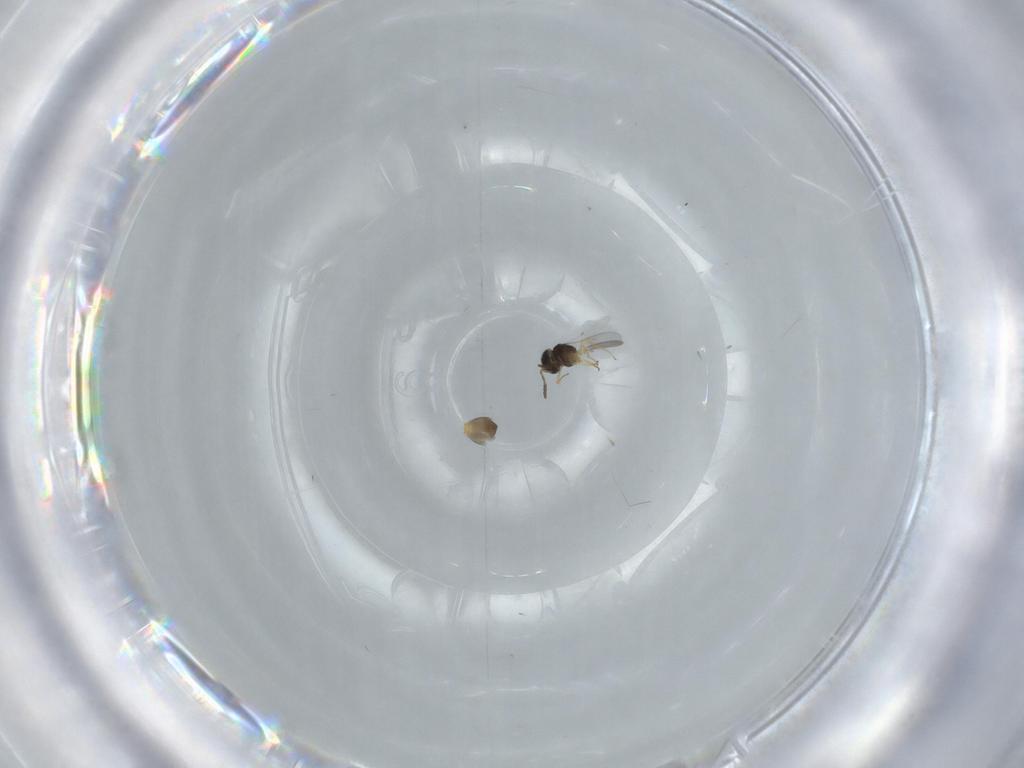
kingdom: Animalia
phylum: Arthropoda
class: Insecta
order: Hymenoptera
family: Scelionidae
